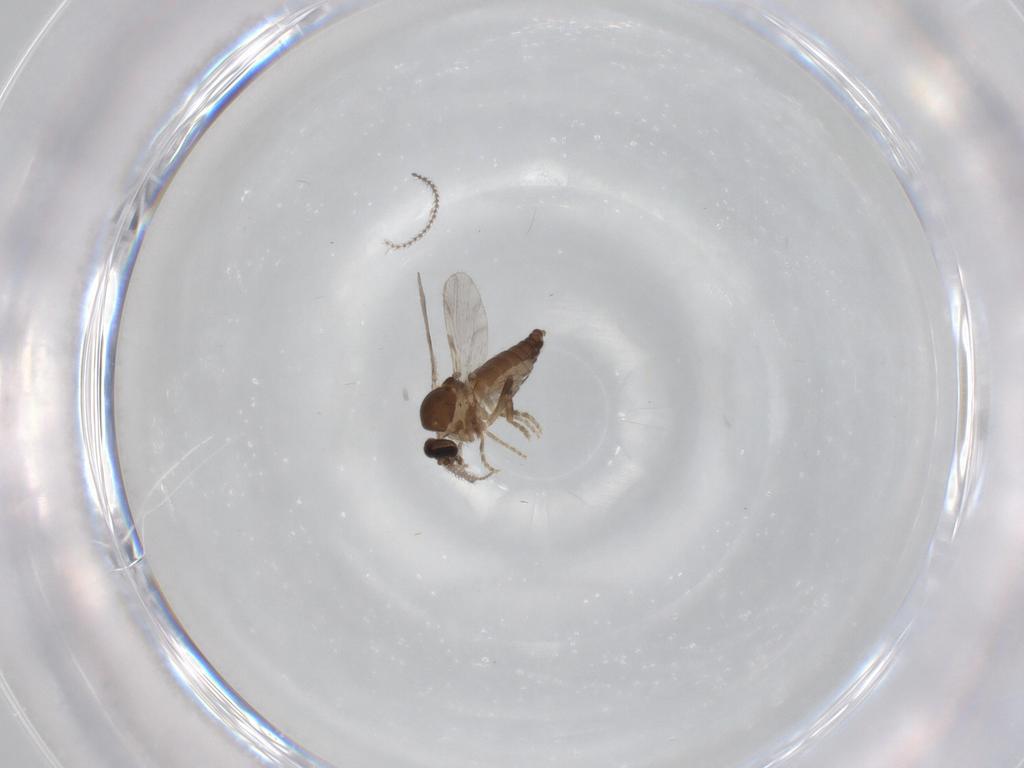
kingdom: Animalia
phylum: Arthropoda
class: Insecta
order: Diptera
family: Ceratopogonidae
